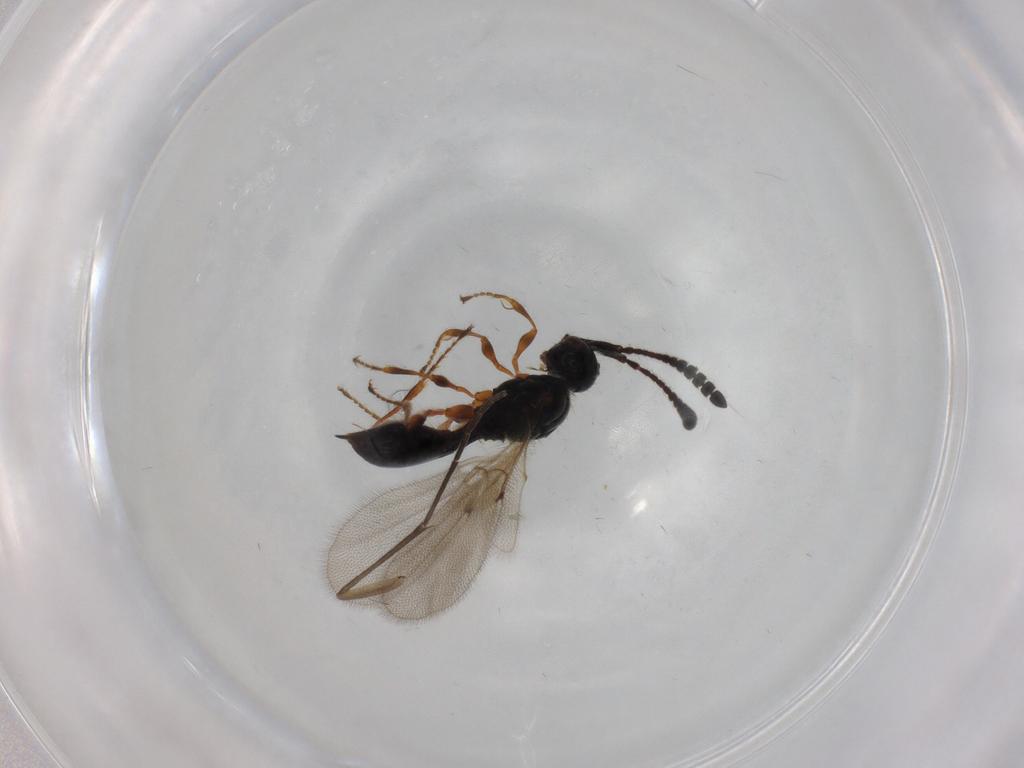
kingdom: Animalia
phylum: Arthropoda
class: Insecta
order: Hymenoptera
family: Diapriidae
